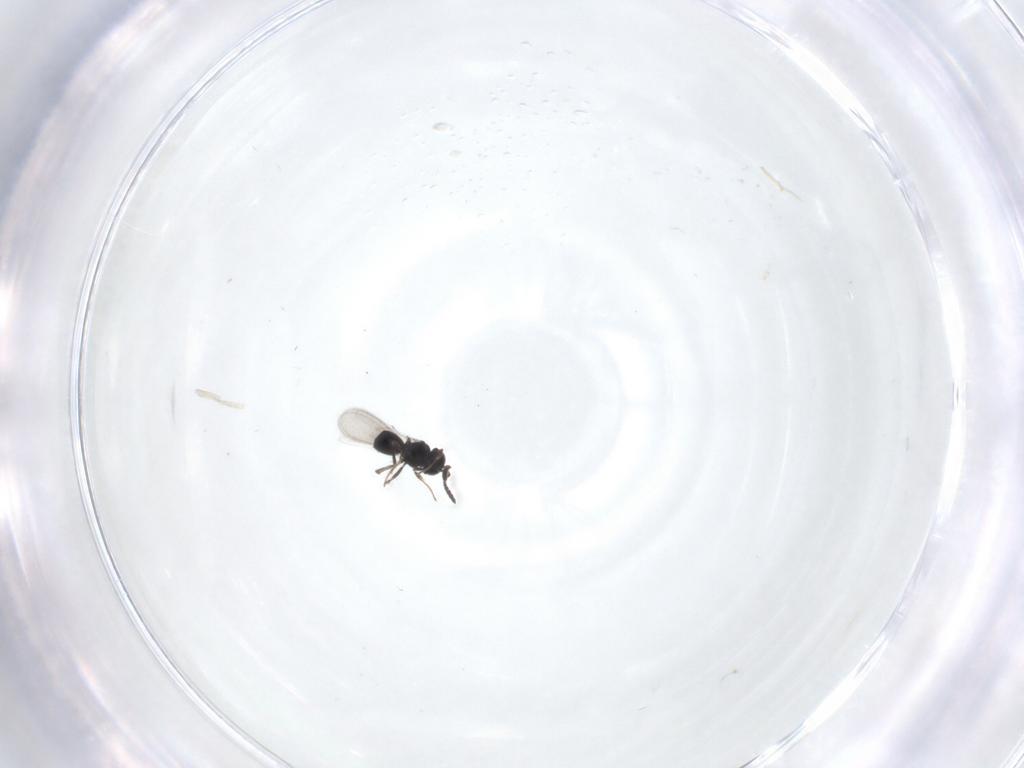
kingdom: Animalia
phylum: Arthropoda
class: Insecta
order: Hymenoptera
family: Scelionidae
